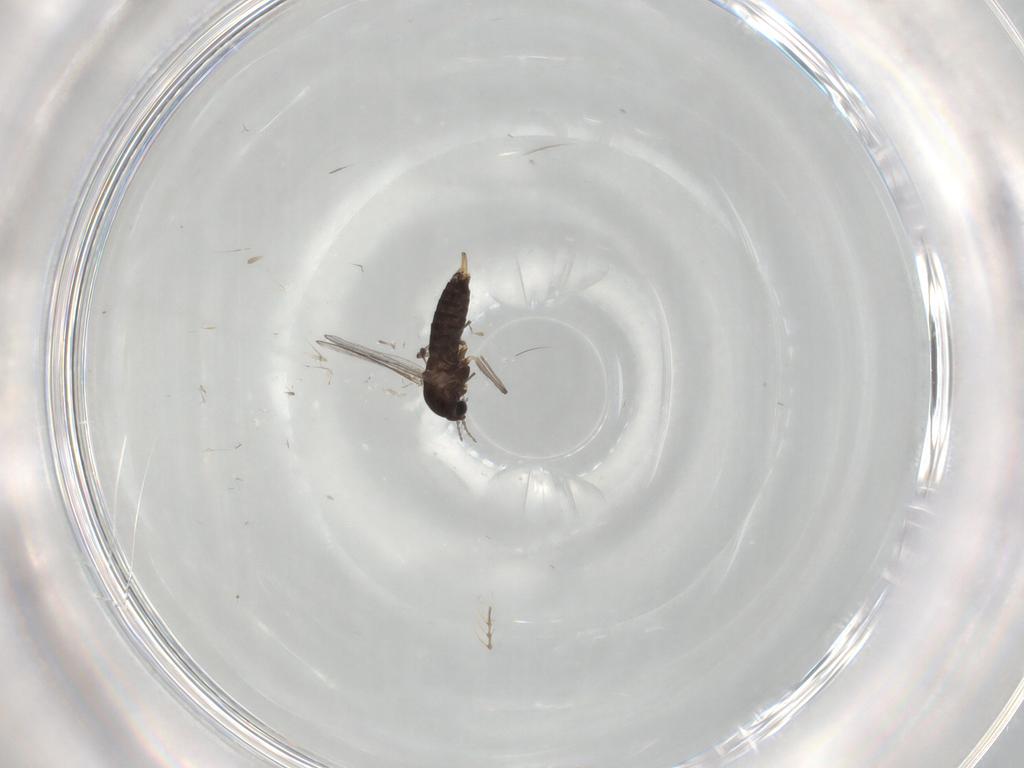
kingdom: Animalia
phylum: Arthropoda
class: Insecta
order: Diptera
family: Chironomidae
